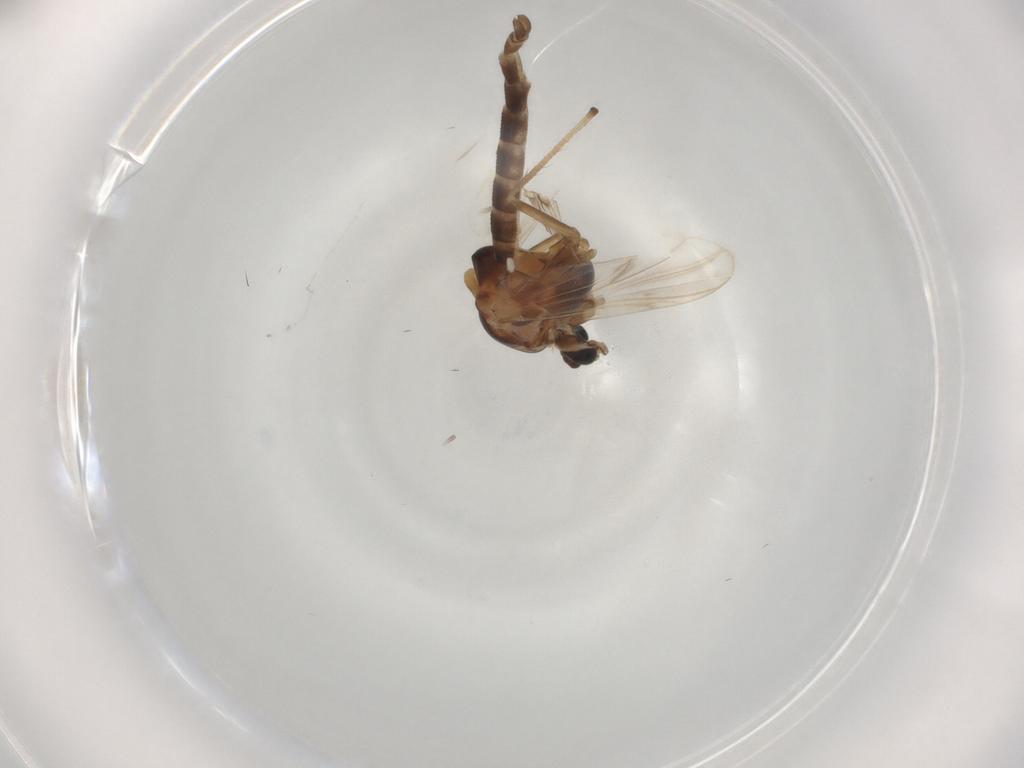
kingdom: Animalia
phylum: Arthropoda
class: Insecta
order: Diptera
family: Chironomidae
